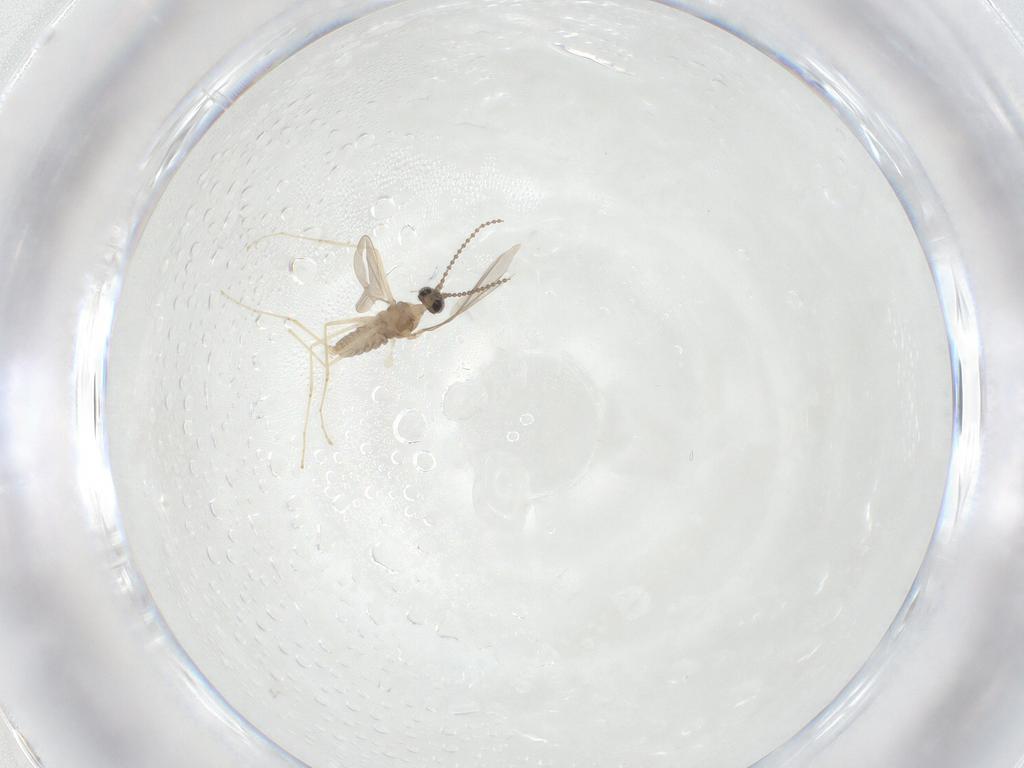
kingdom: Animalia
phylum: Arthropoda
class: Insecta
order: Diptera
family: Cecidomyiidae
